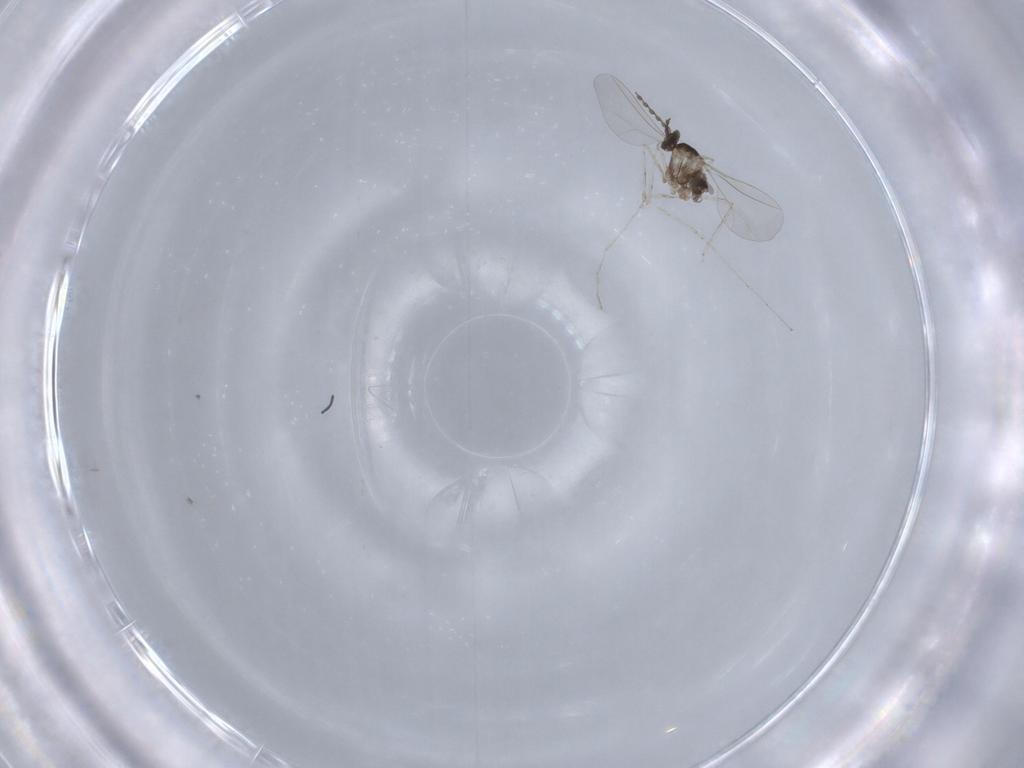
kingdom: Animalia
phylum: Arthropoda
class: Insecta
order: Diptera
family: Cecidomyiidae
